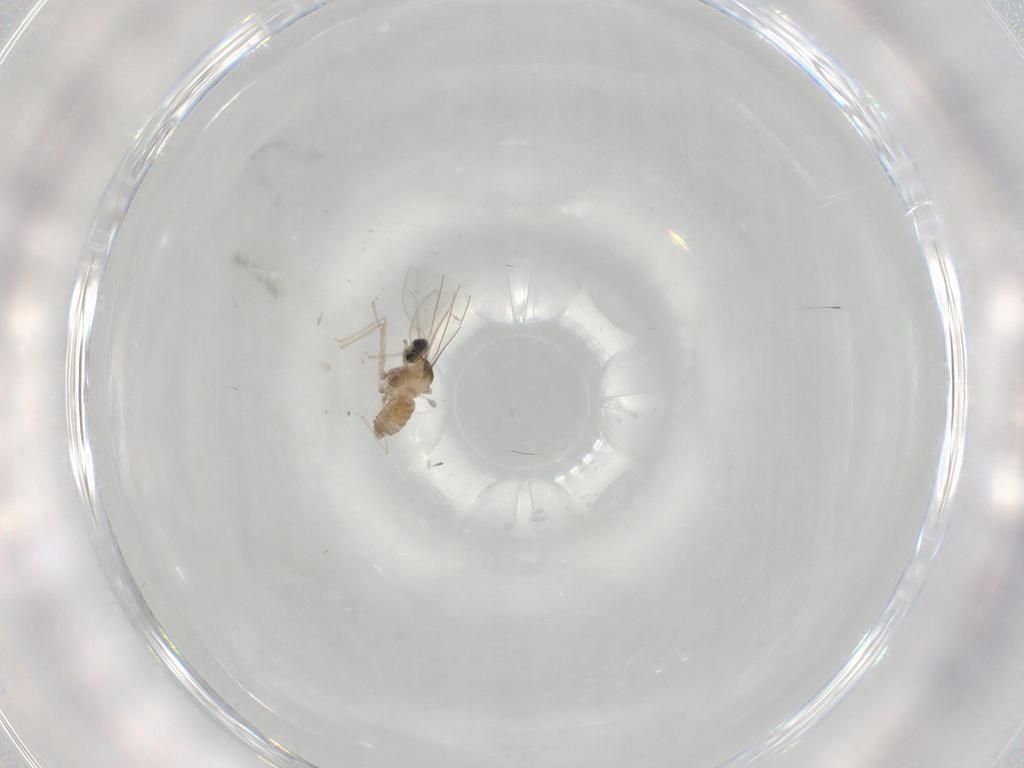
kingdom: Animalia
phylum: Arthropoda
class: Insecta
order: Diptera
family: Cecidomyiidae
